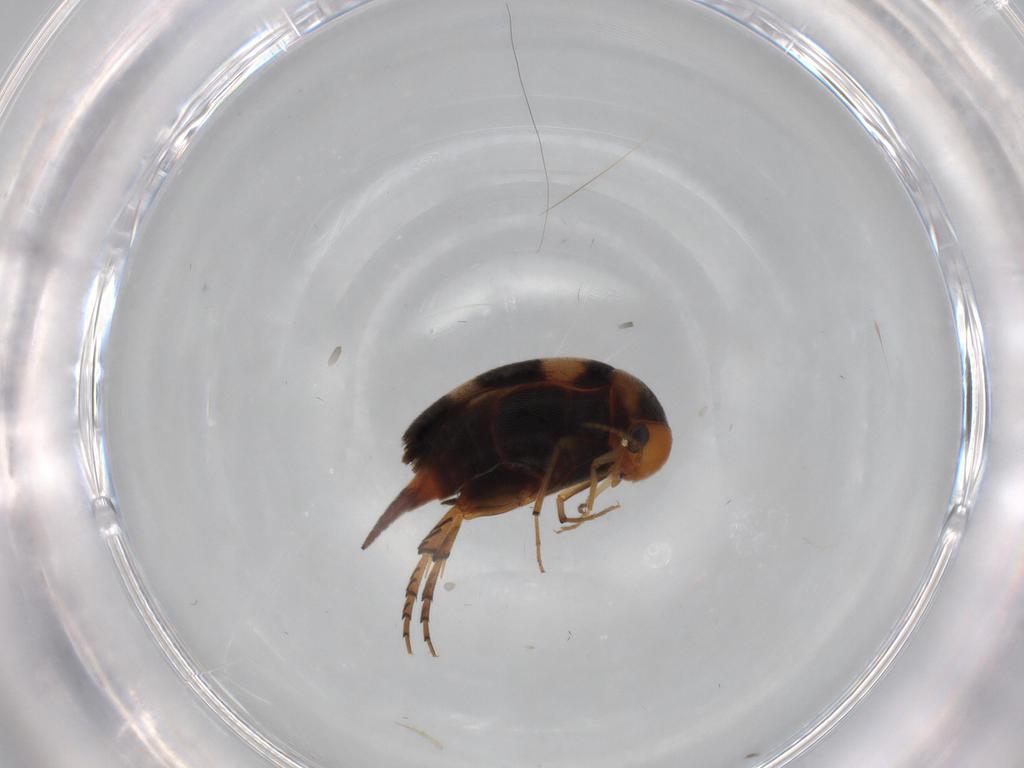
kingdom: Animalia
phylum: Arthropoda
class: Insecta
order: Coleoptera
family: Mordellidae
